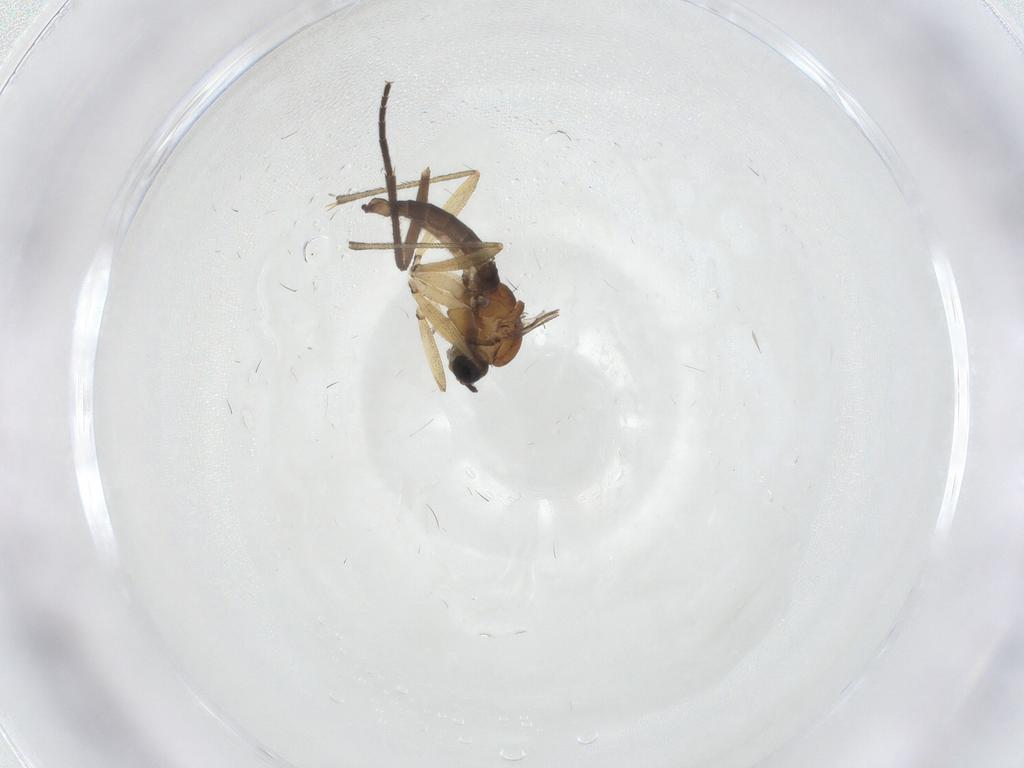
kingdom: Animalia
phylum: Arthropoda
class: Insecta
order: Diptera
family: Sciaridae
